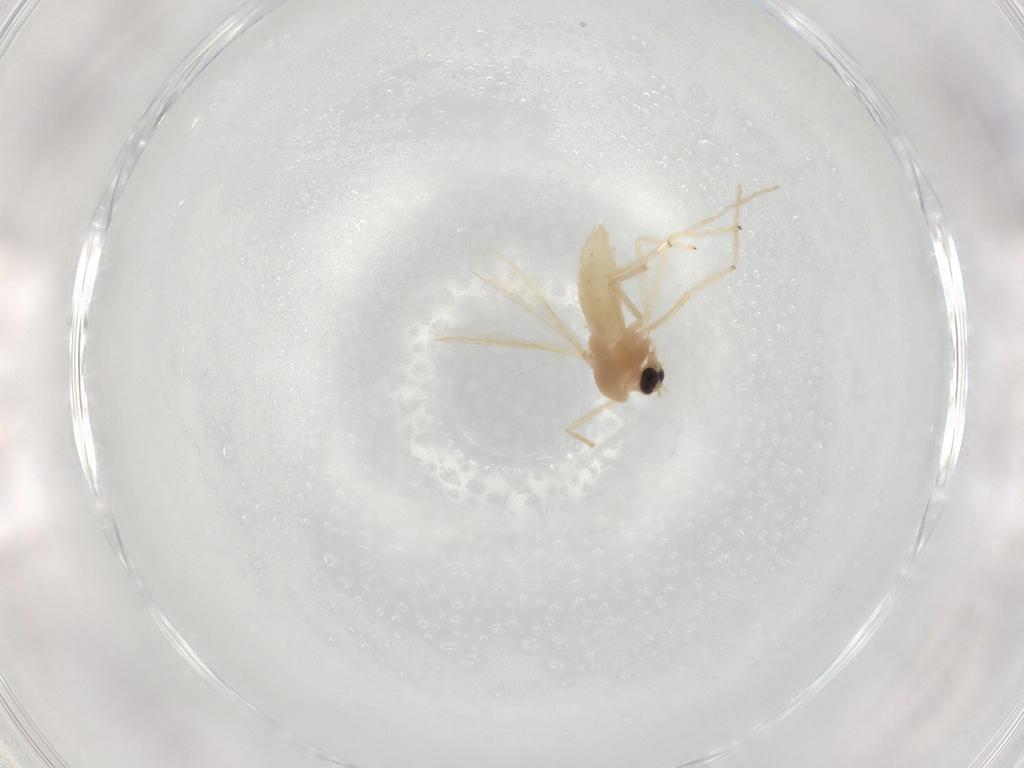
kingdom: Animalia
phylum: Arthropoda
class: Insecta
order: Diptera
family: Chironomidae
